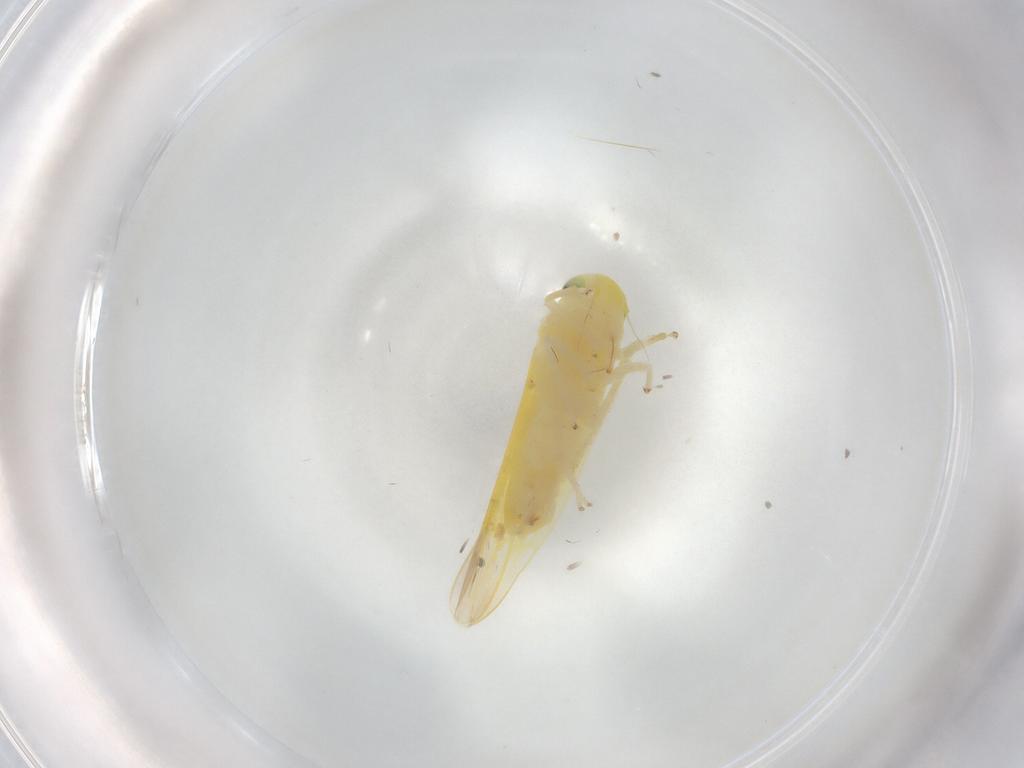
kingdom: Animalia
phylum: Arthropoda
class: Insecta
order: Hemiptera
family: Cicadellidae
